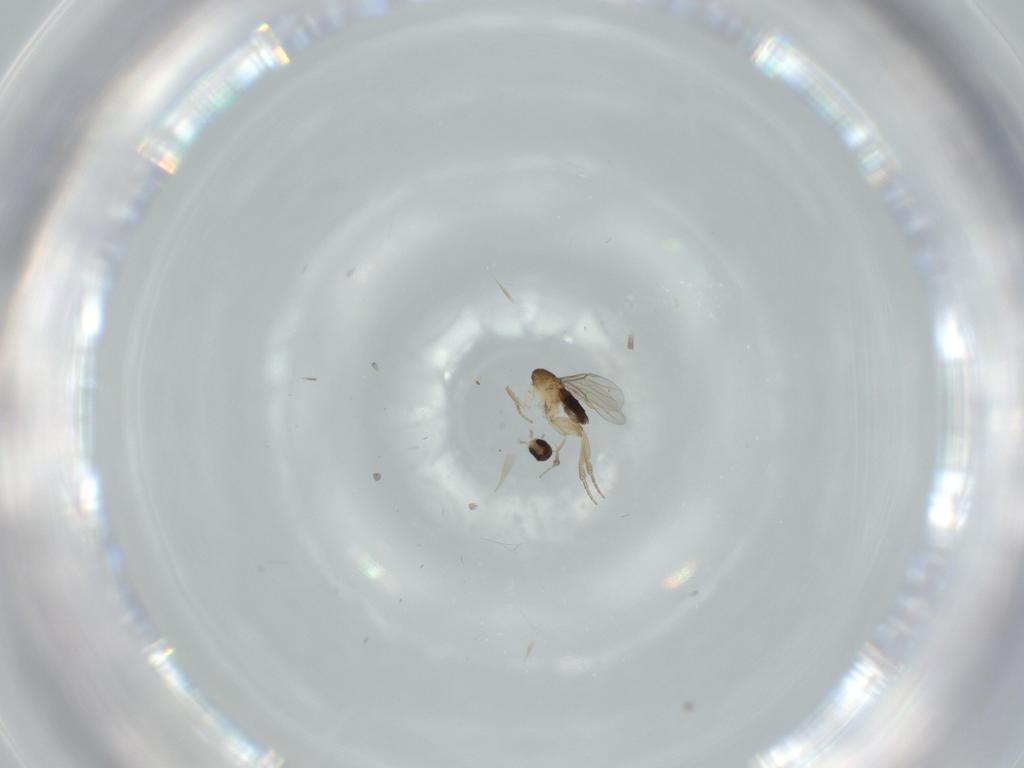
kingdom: Animalia
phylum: Arthropoda
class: Insecta
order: Diptera
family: Phoridae
